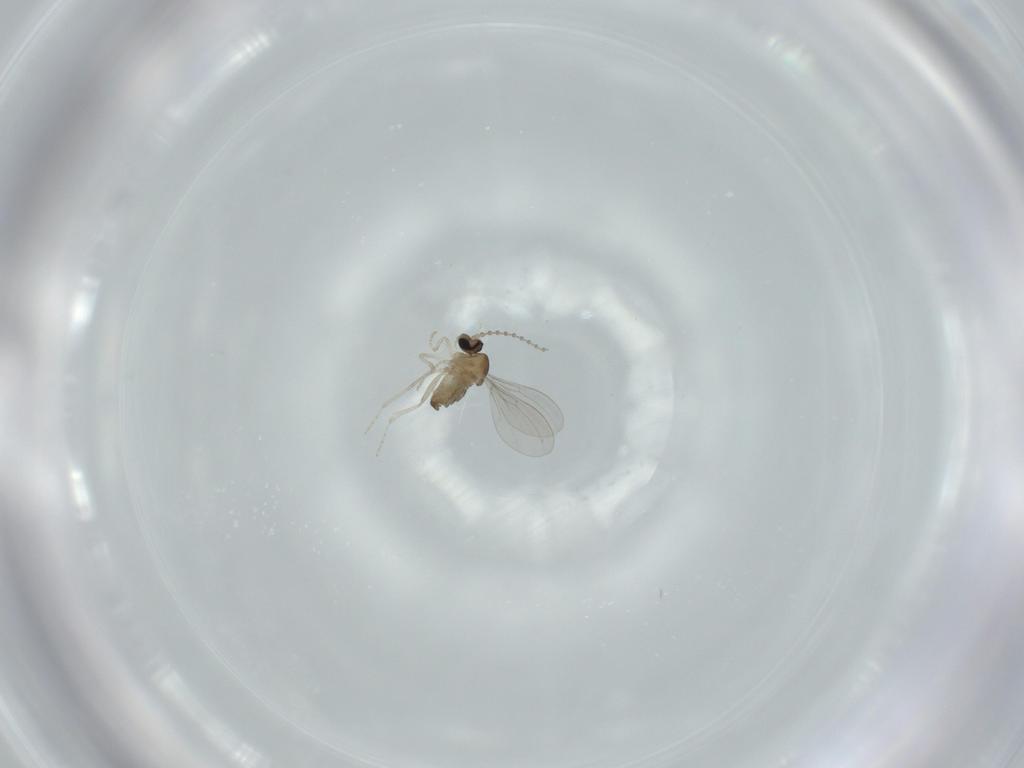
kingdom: Animalia
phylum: Arthropoda
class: Insecta
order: Diptera
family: Cecidomyiidae
